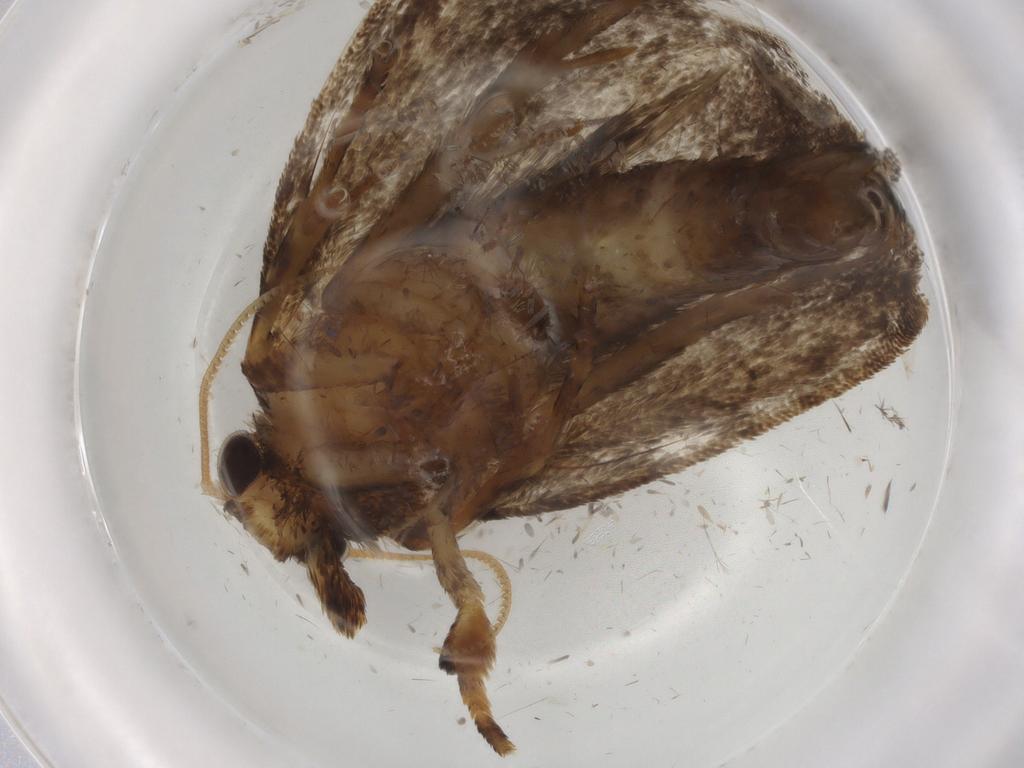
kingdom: Animalia
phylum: Arthropoda
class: Insecta
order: Lepidoptera
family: Tineidae
